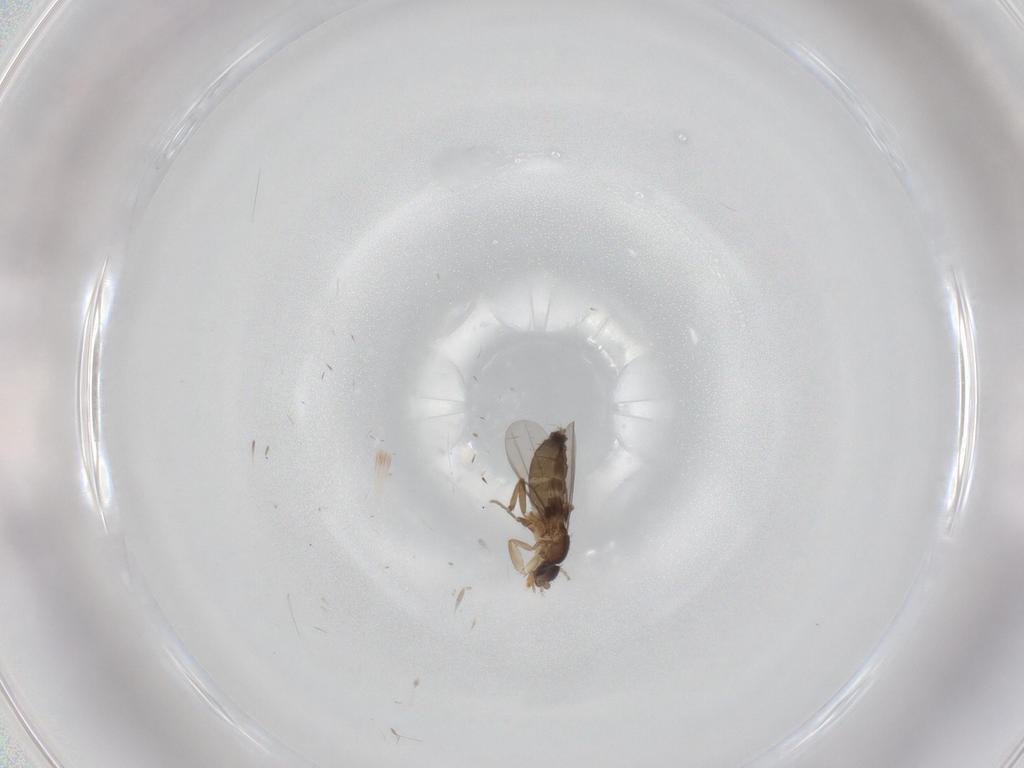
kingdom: Animalia
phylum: Arthropoda
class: Insecta
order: Diptera
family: Phoridae
